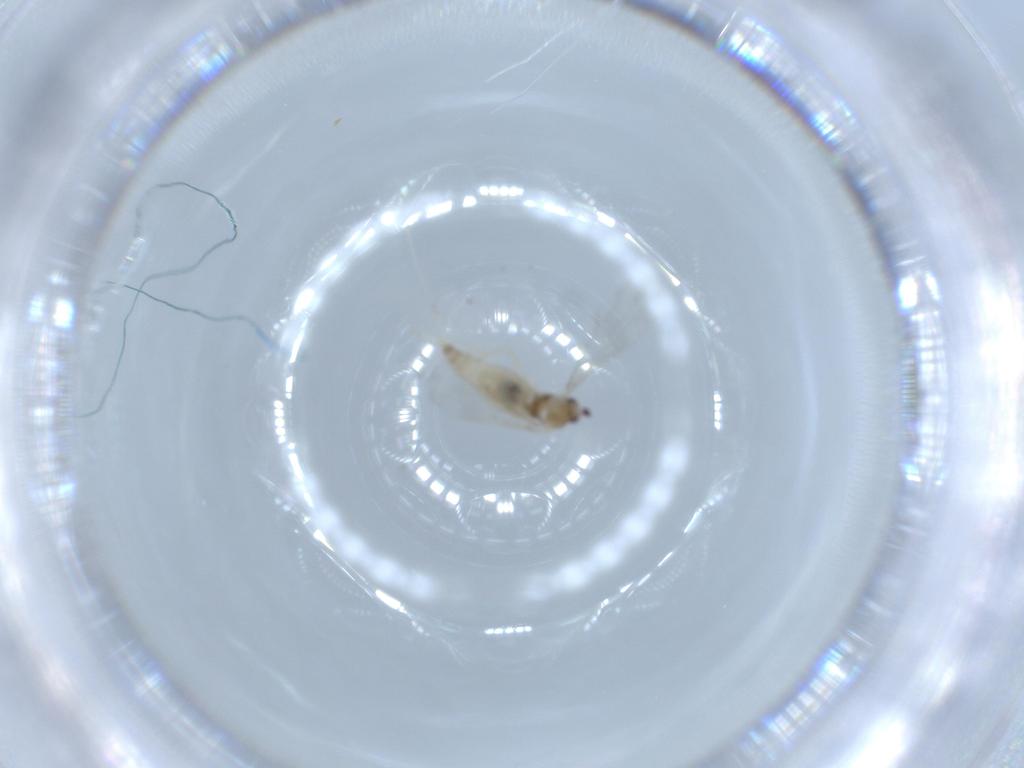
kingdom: Animalia
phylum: Arthropoda
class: Insecta
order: Diptera
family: Cecidomyiidae
